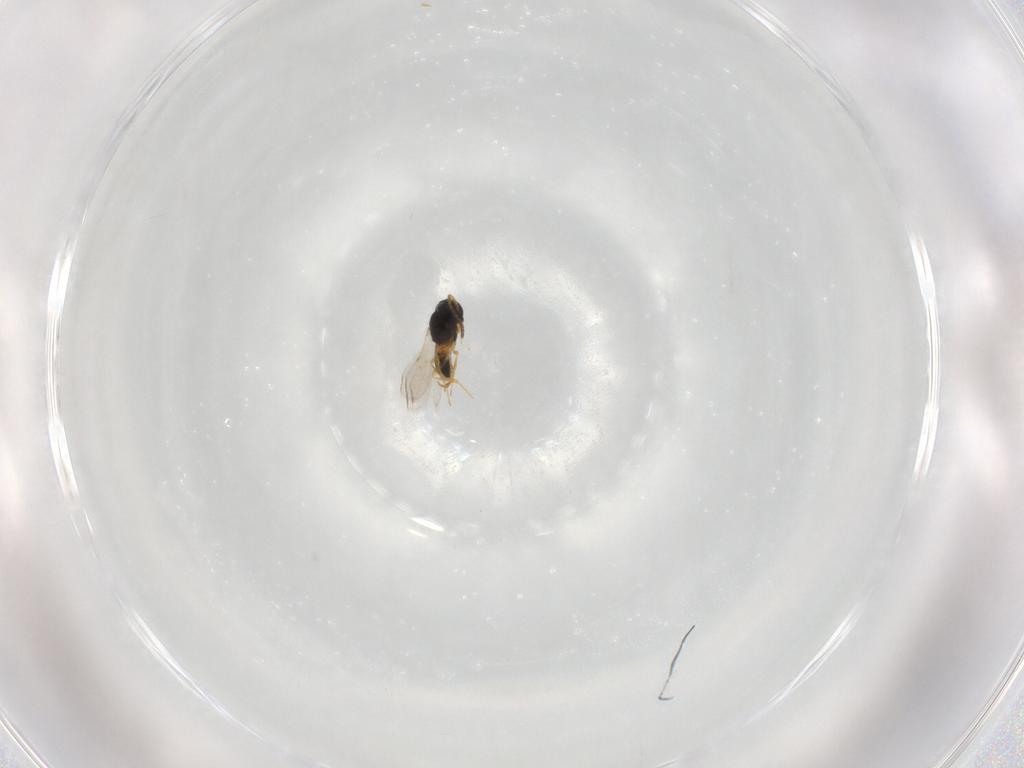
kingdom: Animalia
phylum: Arthropoda
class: Insecta
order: Hymenoptera
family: Scelionidae
